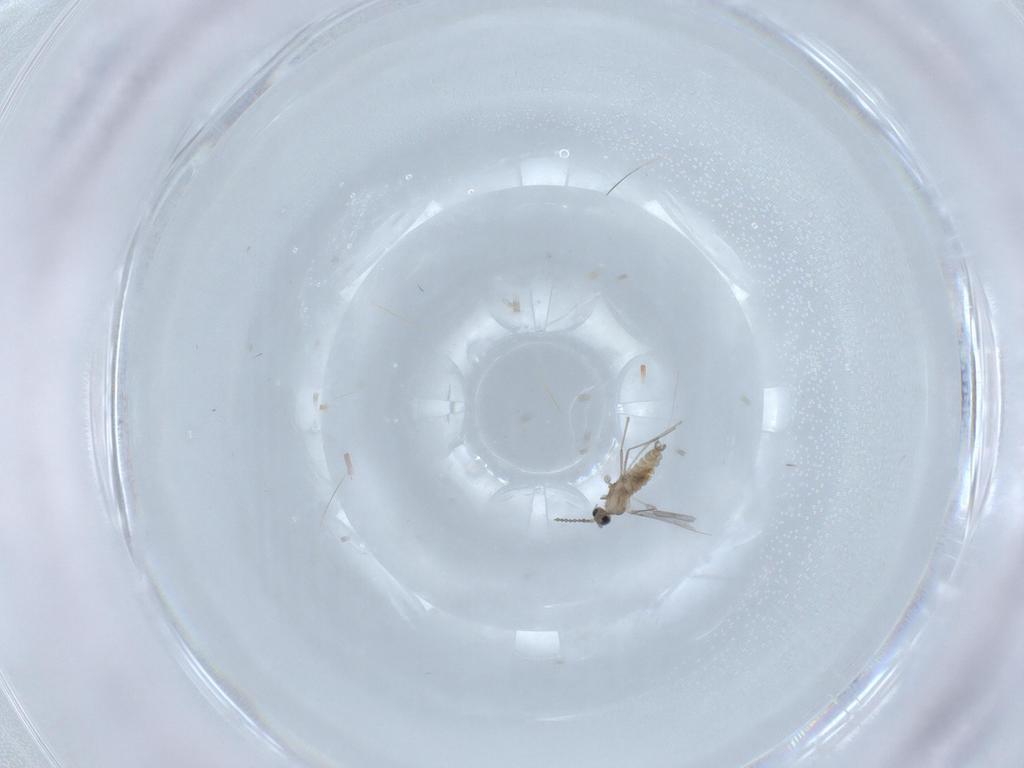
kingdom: Animalia
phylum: Arthropoda
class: Insecta
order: Diptera
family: Cecidomyiidae
